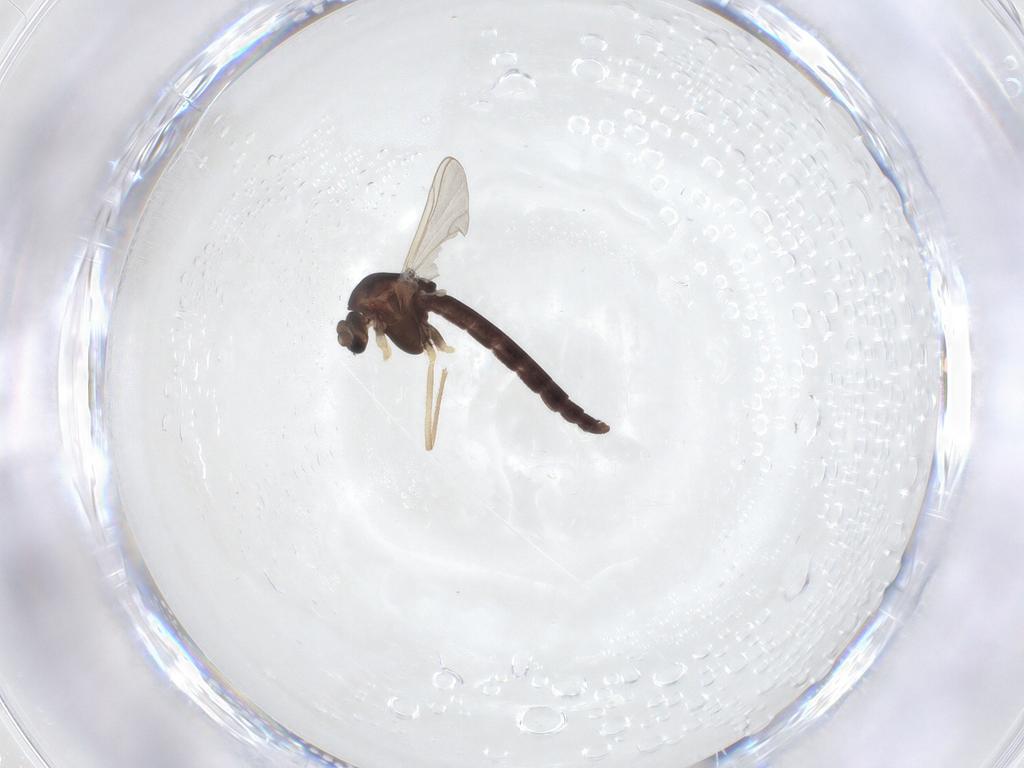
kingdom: Animalia
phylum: Arthropoda
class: Insecta
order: Diptera
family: Chironomidae
